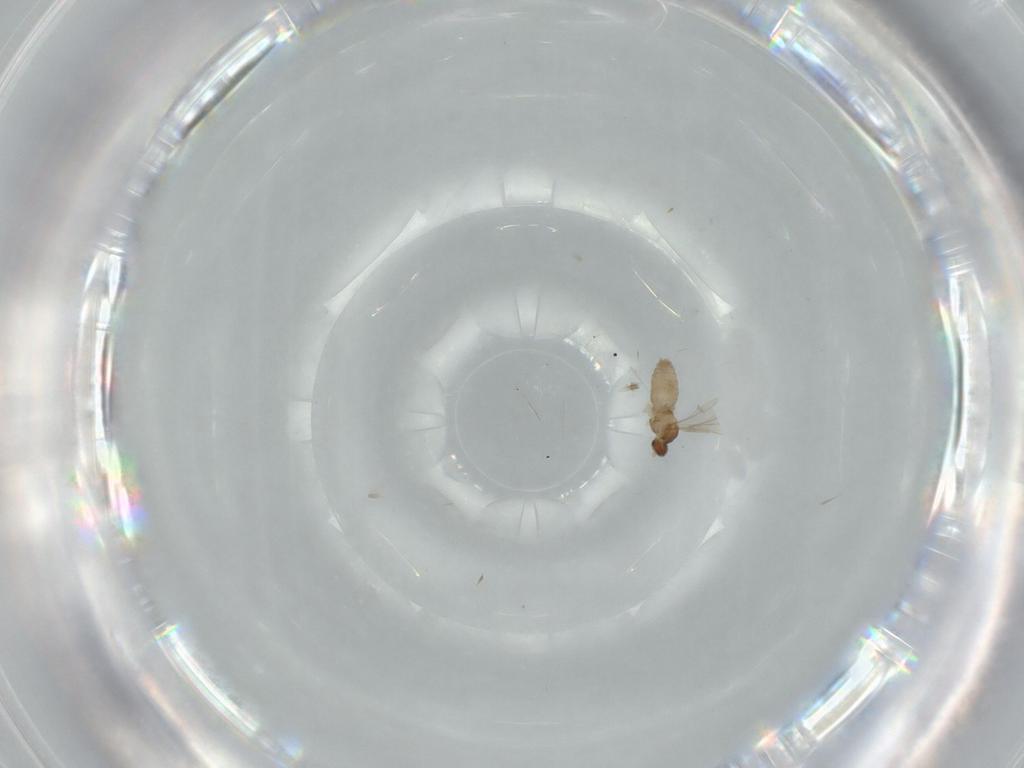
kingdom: Animalia
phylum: Arthropoda
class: Insecta
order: Diptera
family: Cecidomyiidae
